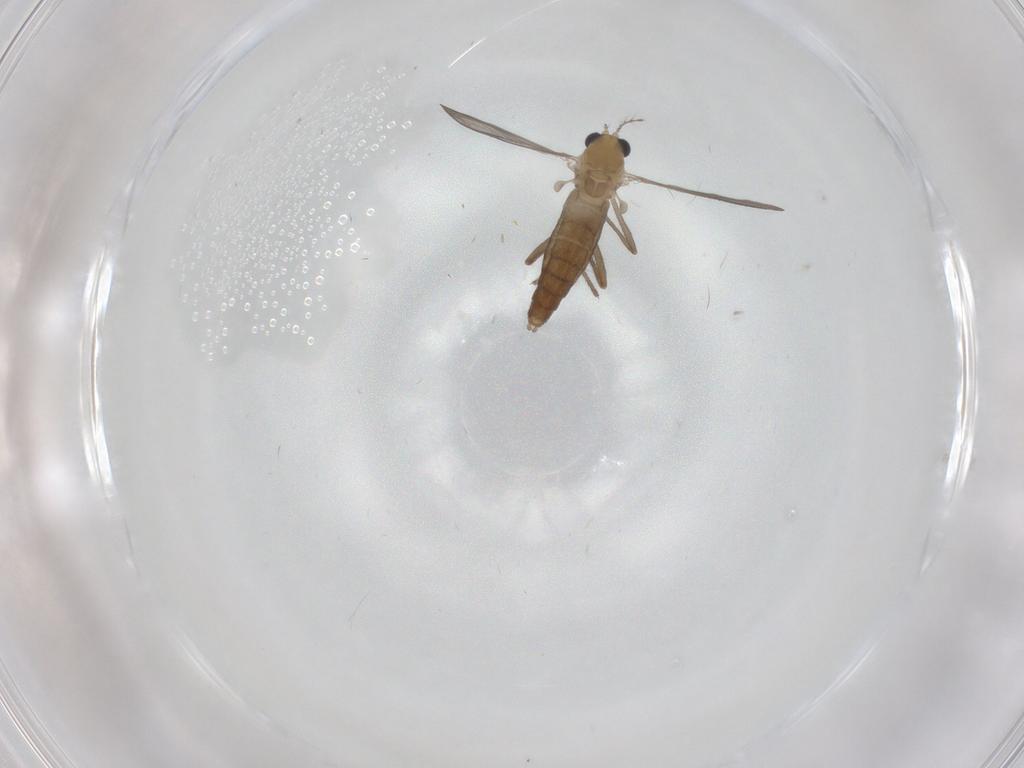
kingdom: Animalia
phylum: Arthropoda
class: Insecta
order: Diptera
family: Chironomidae
